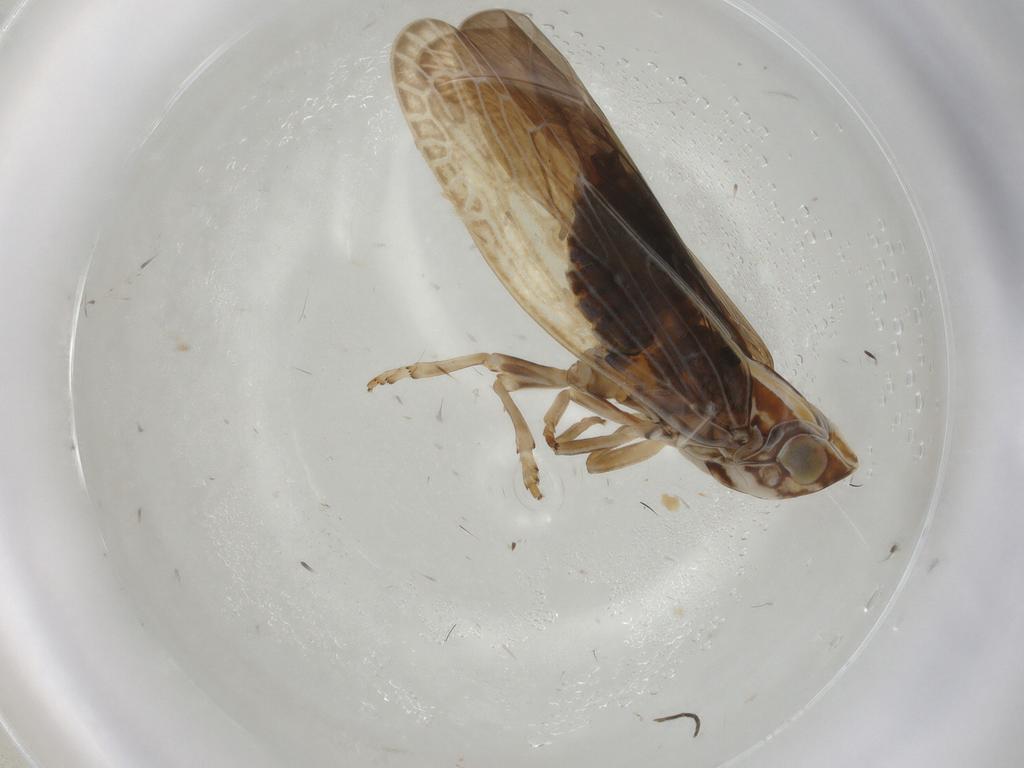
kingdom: Animalia
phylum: Arthropoda
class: Insecta
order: Hemiptera
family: Achilidae
